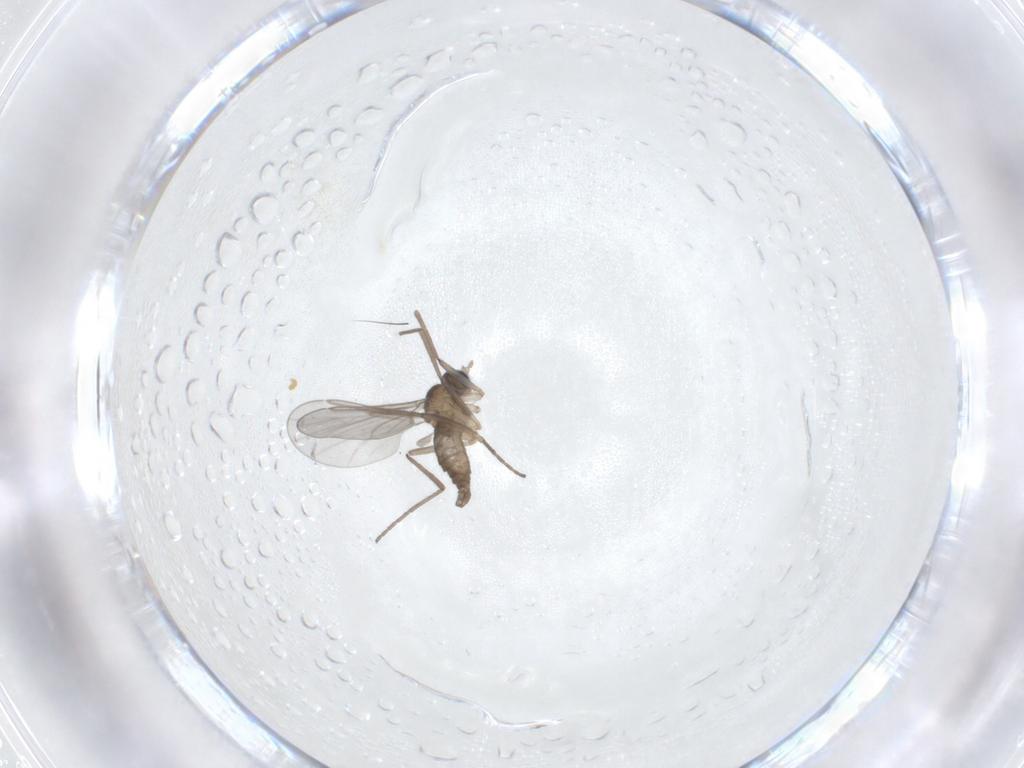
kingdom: Animalia
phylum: Arthropoda
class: Insecta
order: Diptera
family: Cecidomyiidae
